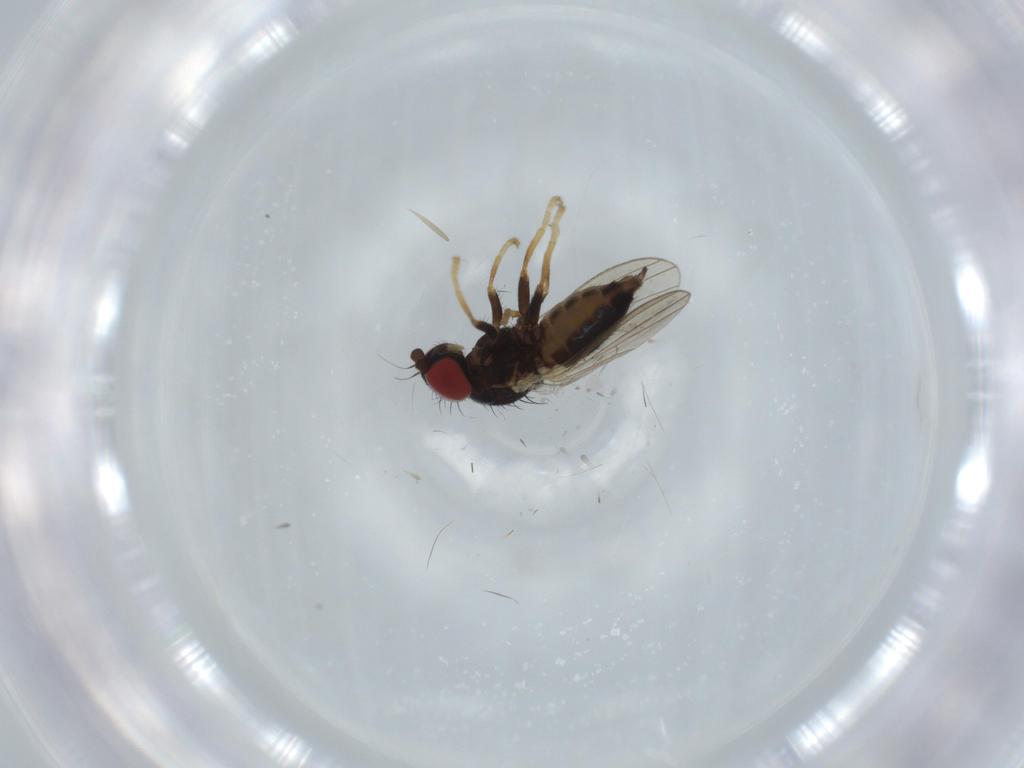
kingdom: Animalia
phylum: Arthropoda
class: Insecta
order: Diptera
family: Chamaemyiidae
